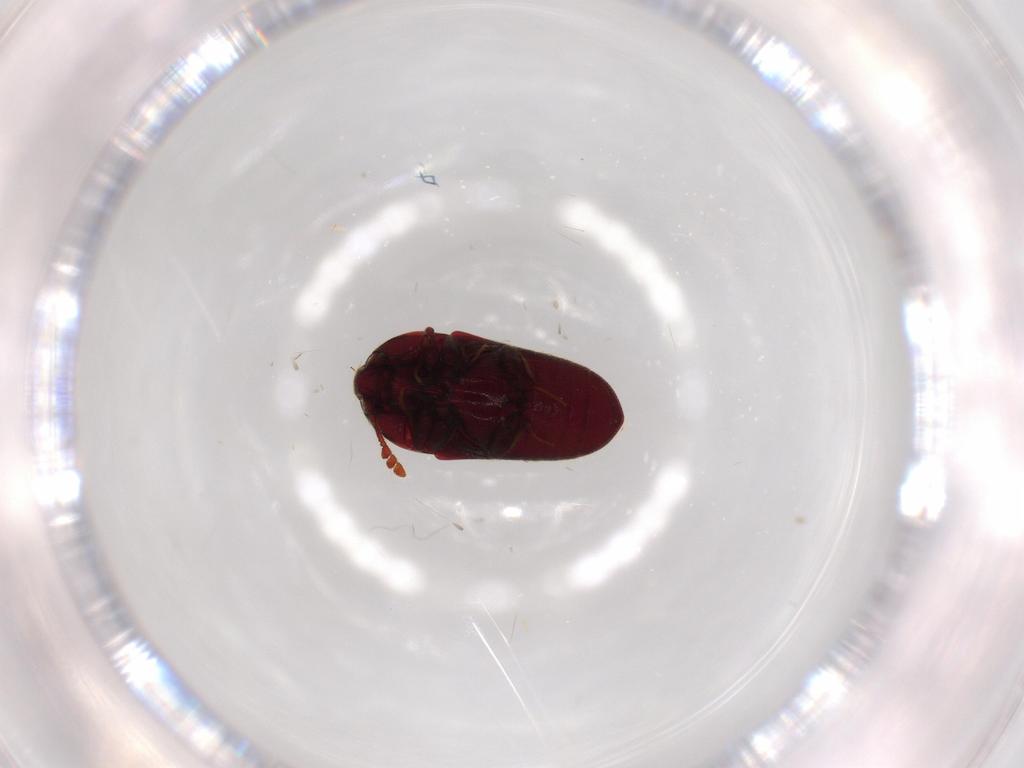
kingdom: Animalia
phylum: Arthropoda
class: Insecta
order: Coleoptera
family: Throscidae
